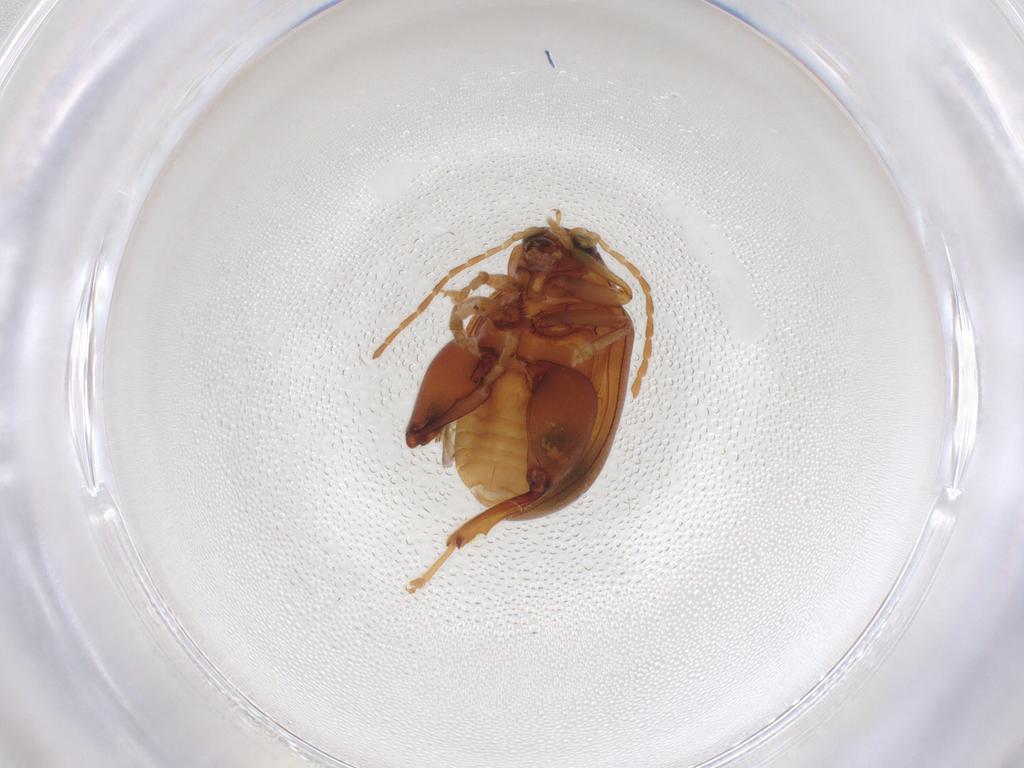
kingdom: Animalia
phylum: Arthropoda
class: Insecta
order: Coleoptera
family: Chrysomelidae
